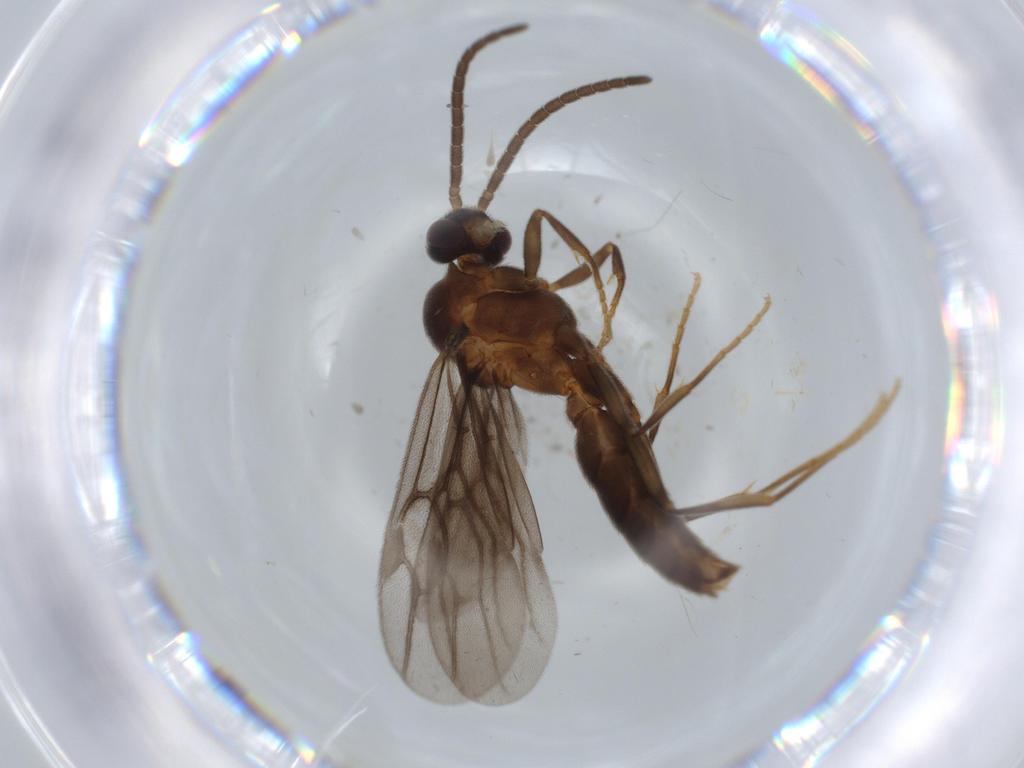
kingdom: Animalia
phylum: Arthropoda
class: Insecta
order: Hymenoptera
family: Formicidae
